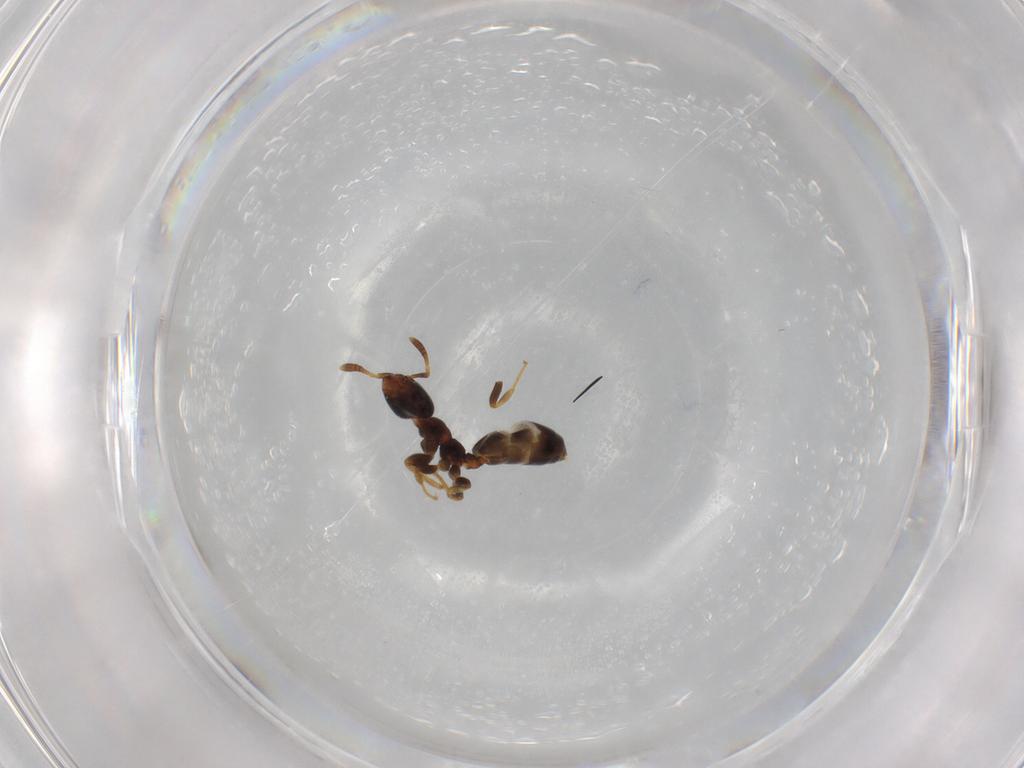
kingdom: Animalia
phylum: Arthropoda
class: Insecta
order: Hymenoptera
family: Formicidae
